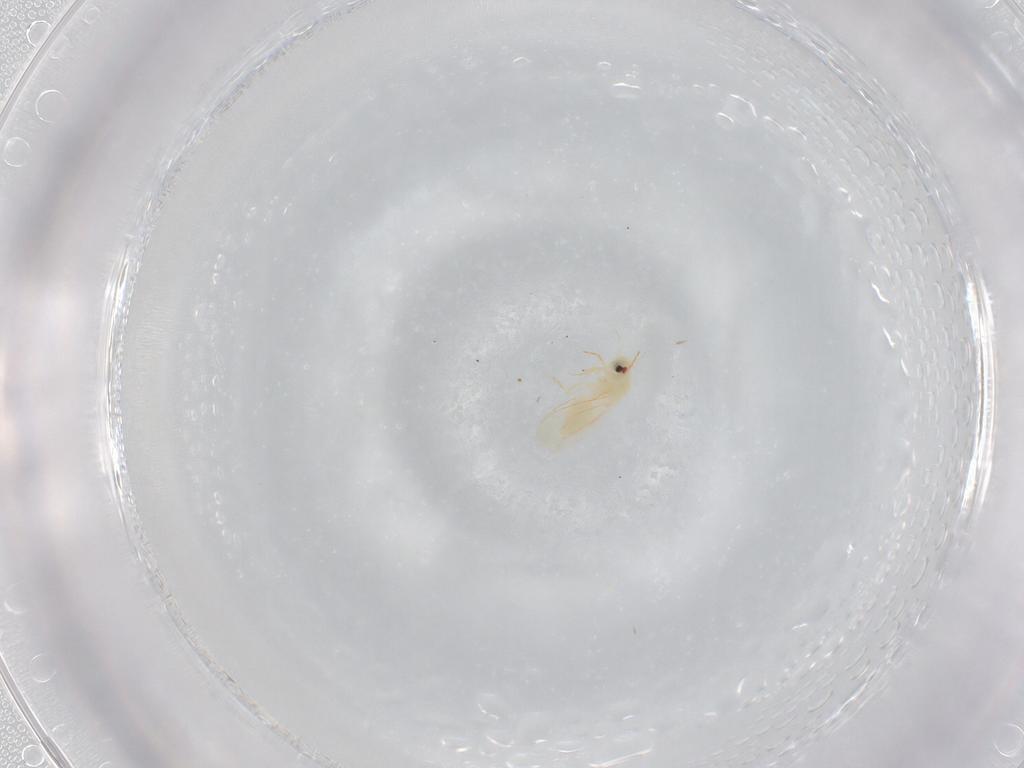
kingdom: Animalia
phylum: Arthropoda
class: Insecta
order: Hemiptera
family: Aleyrodidae
